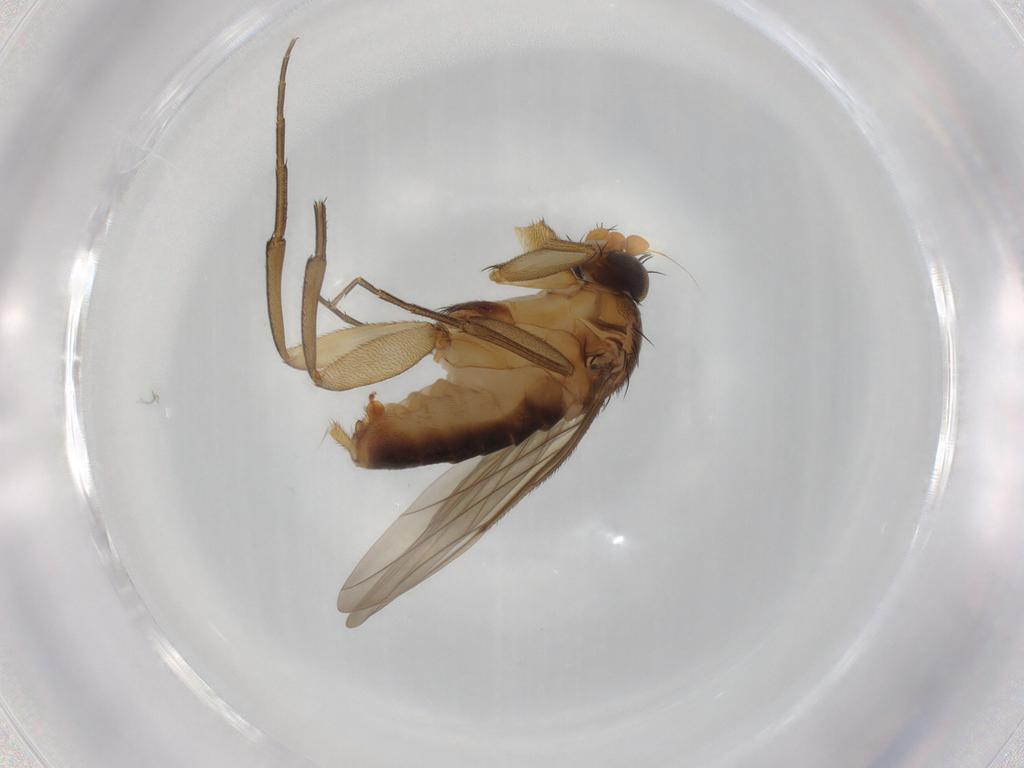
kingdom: Animalia
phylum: Arthropoda
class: Insecta
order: Diptera
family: Phoridae
